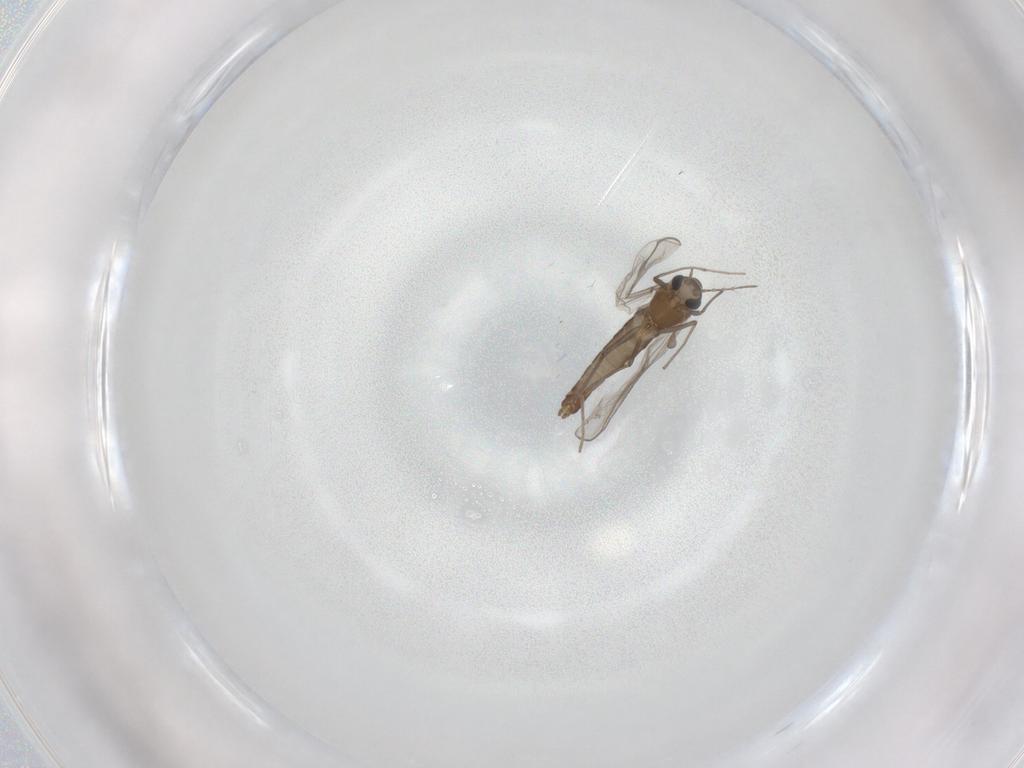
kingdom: Animalia
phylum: Arthropoda
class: Insecta
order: Diptera
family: Chironomidae
